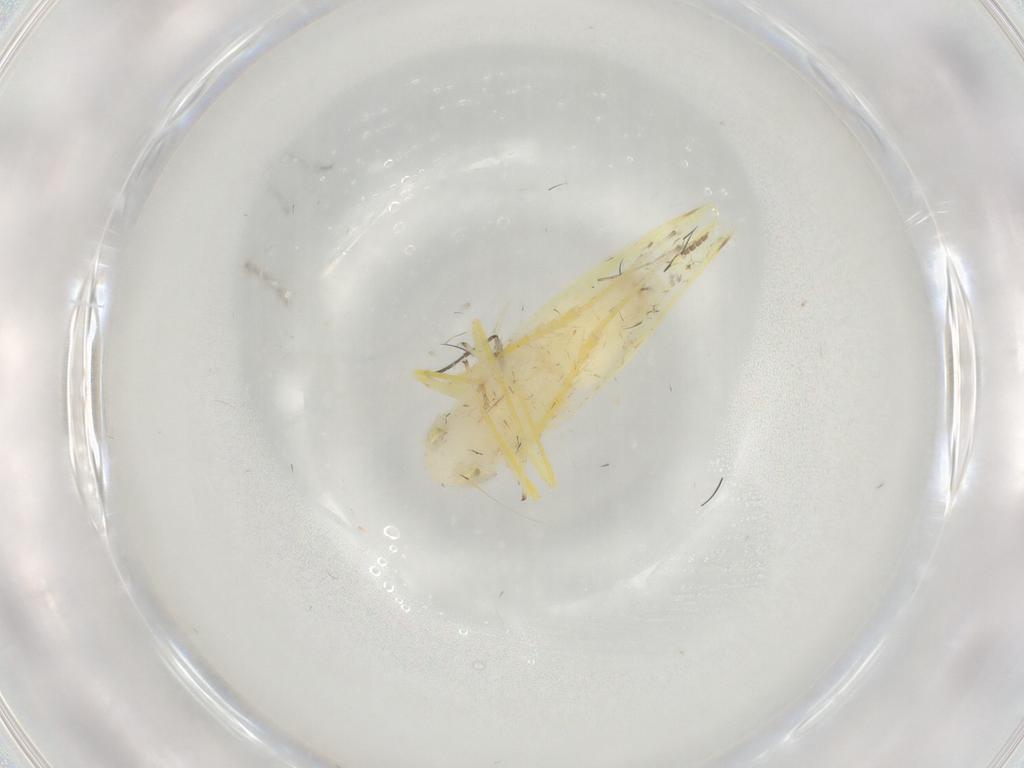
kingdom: Animalia
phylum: Arthropoda
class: Insecta
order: Hemiptera
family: Cicadellidae
